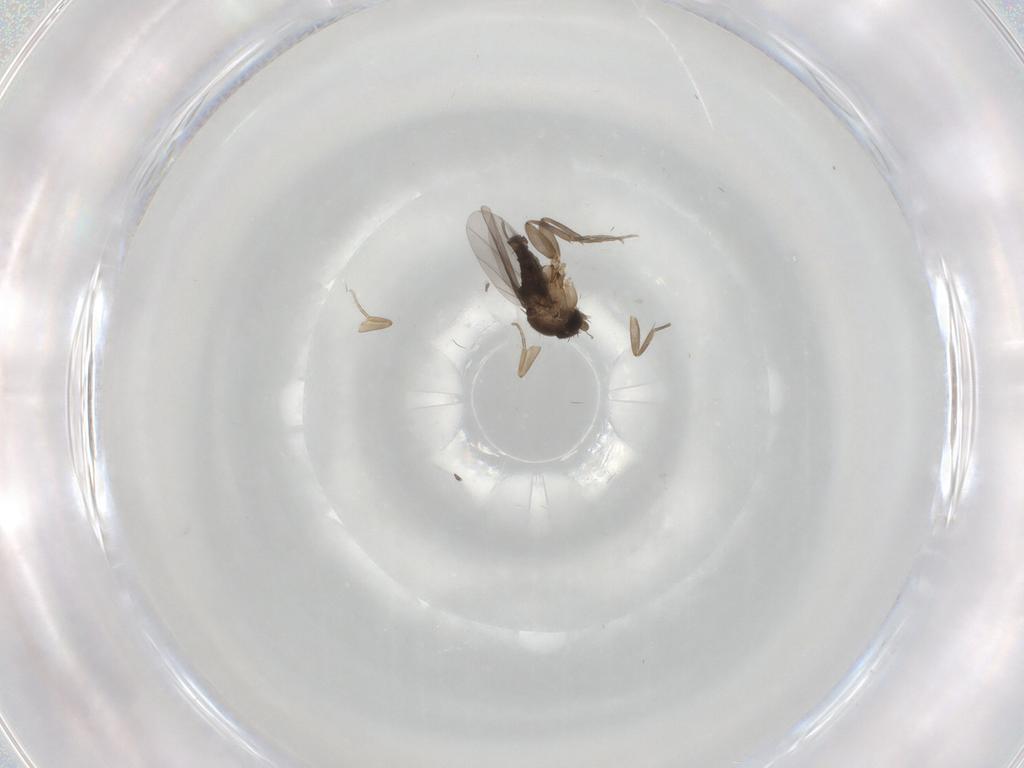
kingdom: Animalia
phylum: Arthropoda
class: Insecta
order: Diptera
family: Phoridae
